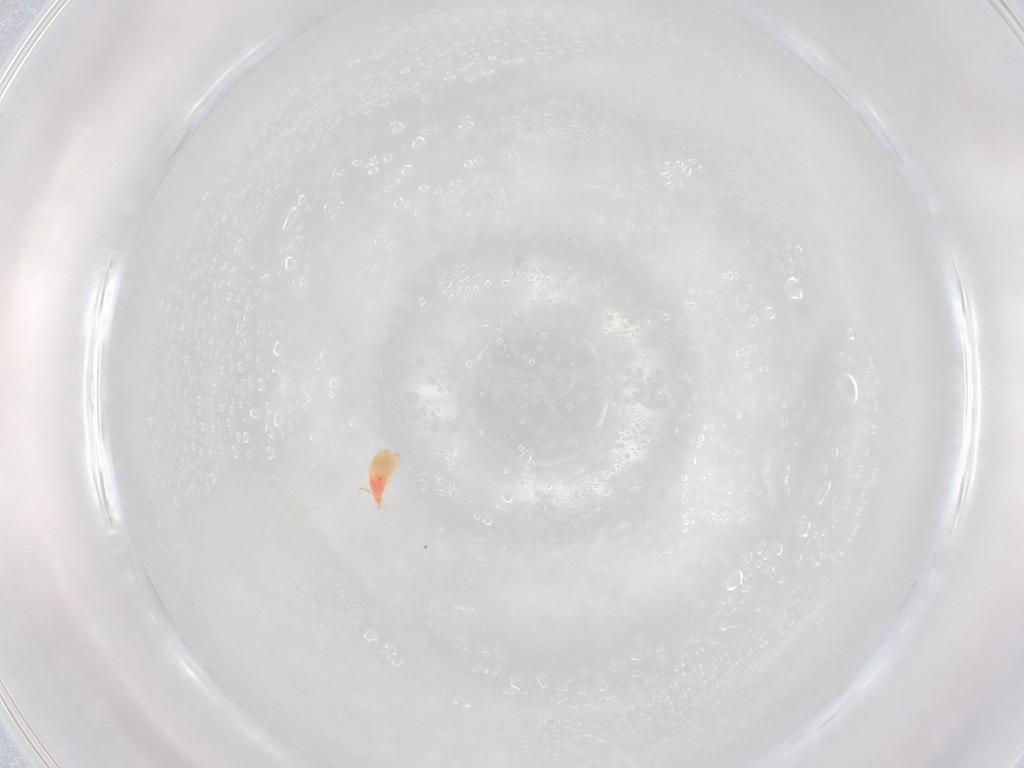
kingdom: Animalia
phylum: Arthropoda
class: Arachnida
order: Trombidiformes
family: Bdellidae
